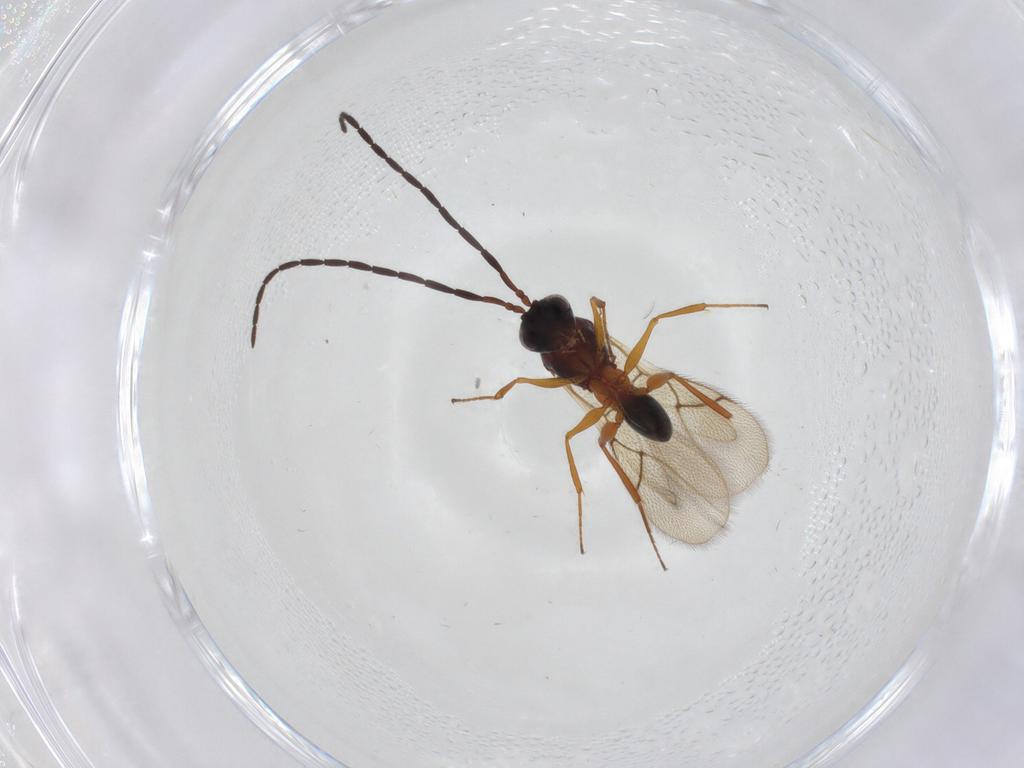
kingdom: Animalia
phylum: Arthropoda
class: Insecta
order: Hymenoptera
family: Figitidae
